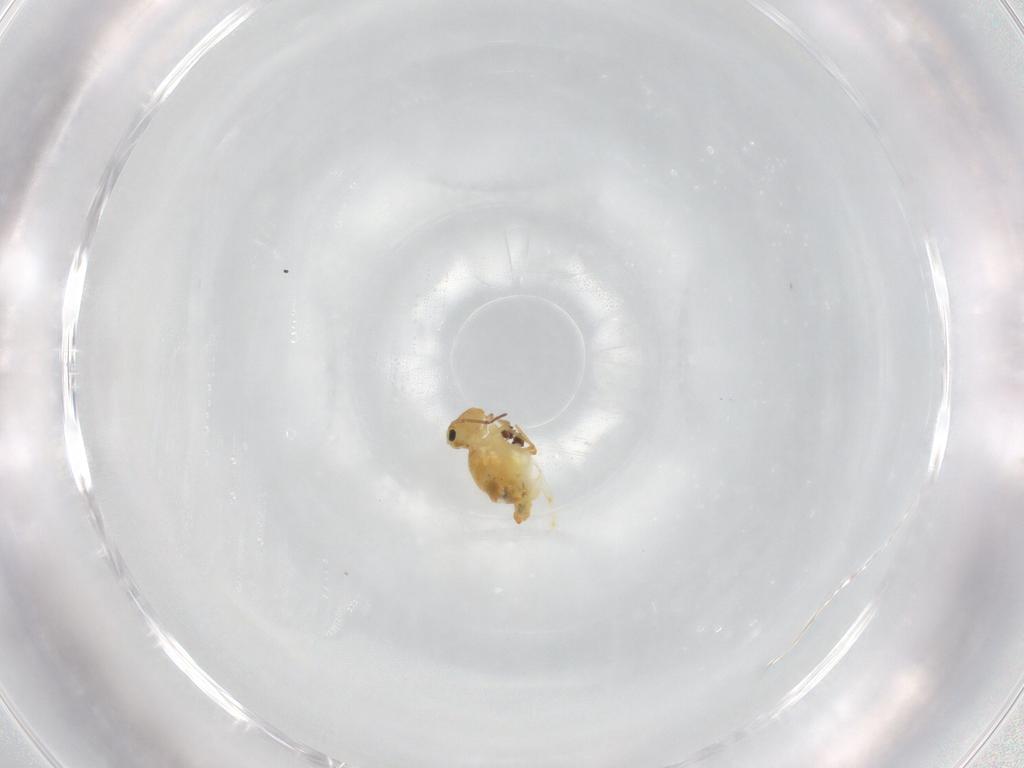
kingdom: Animalia
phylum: Arthropoda
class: Collembola
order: Symphypleona
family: Bourletiellidae
